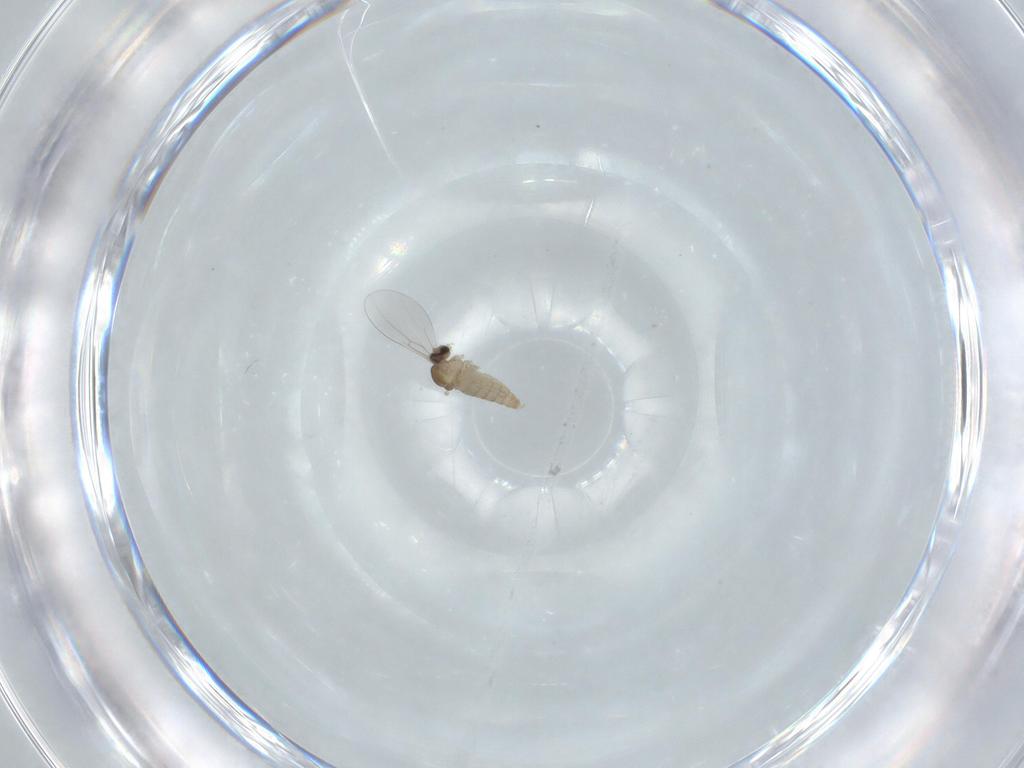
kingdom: Animalia
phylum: Arthropoda
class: Insecta
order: Diptera
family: Cecidomyiidae
